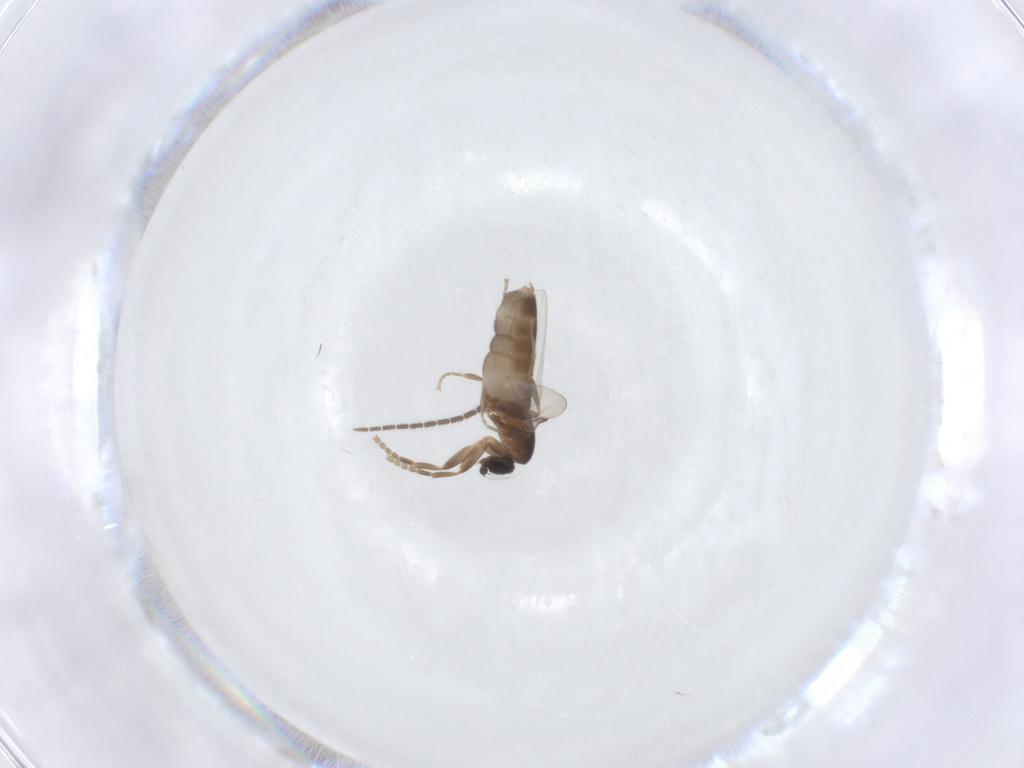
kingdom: Animalia
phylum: Arthropoda
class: Insecta
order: Diptera
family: Sciaridae
